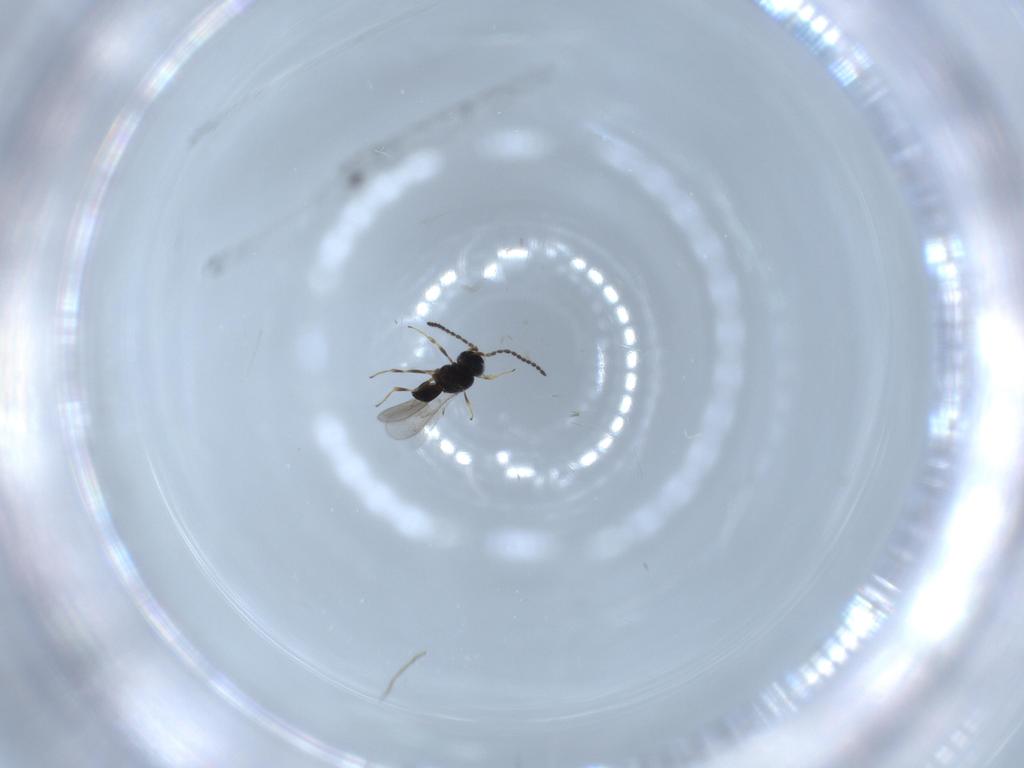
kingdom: Animalia
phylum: Arthropoda
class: Insecta
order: Hymenoptera
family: Scelionidae
